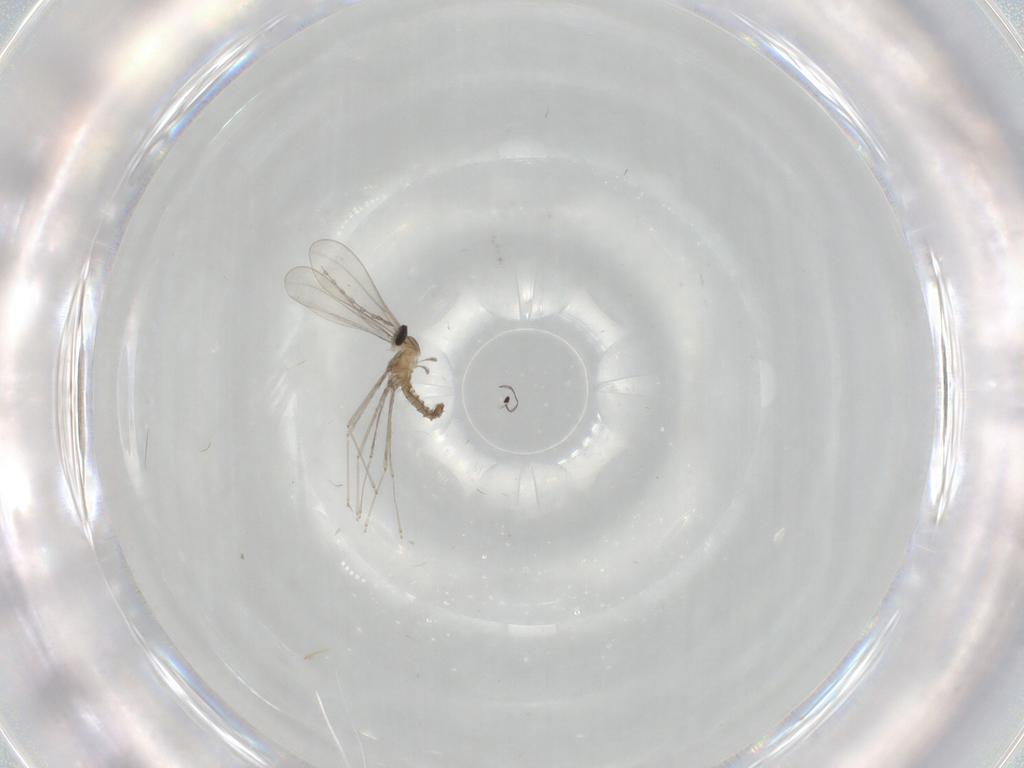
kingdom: Animalia
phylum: Arthropoda
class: Insecta
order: Diptera
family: Cecidomyiidae
